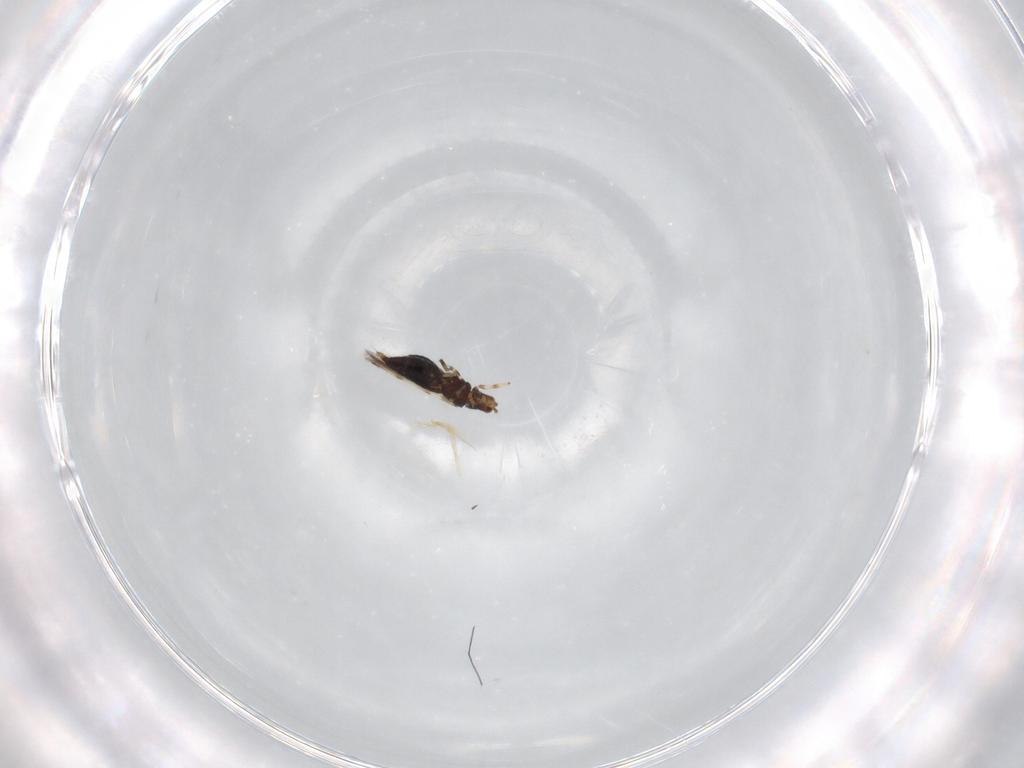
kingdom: Animalia
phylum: Arthropoda
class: Insecta
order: Thysanoptera
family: Thripidae
